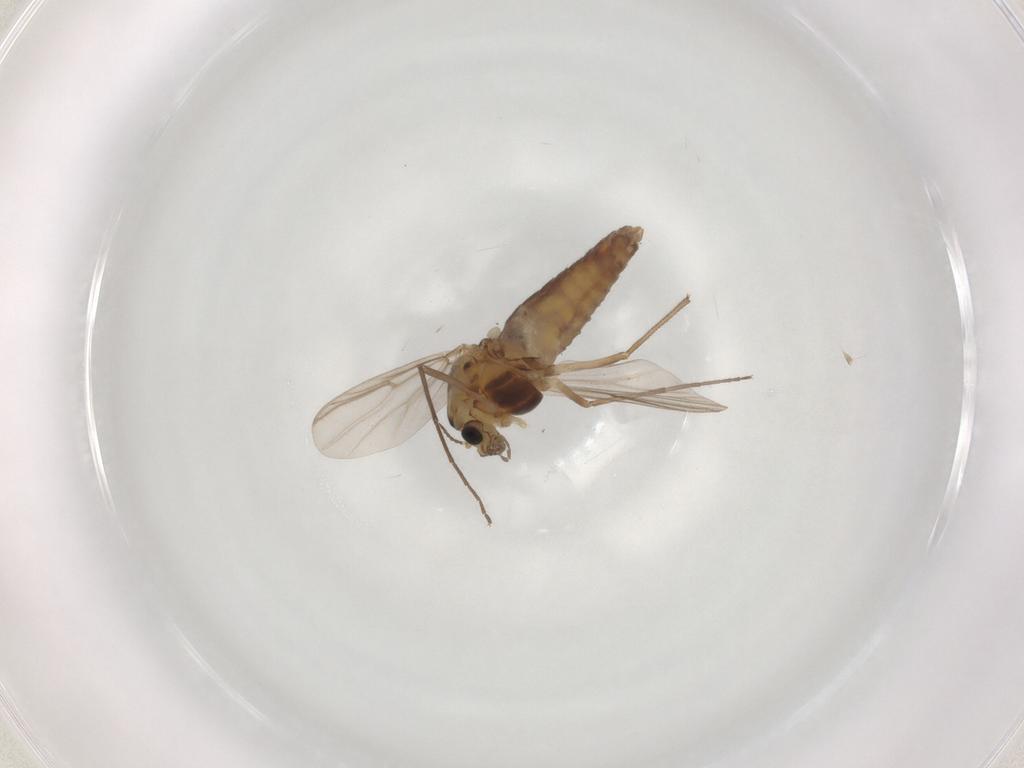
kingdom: Animalia
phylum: Arthropoda
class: Insecta
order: Diptera
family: Chironomidae
